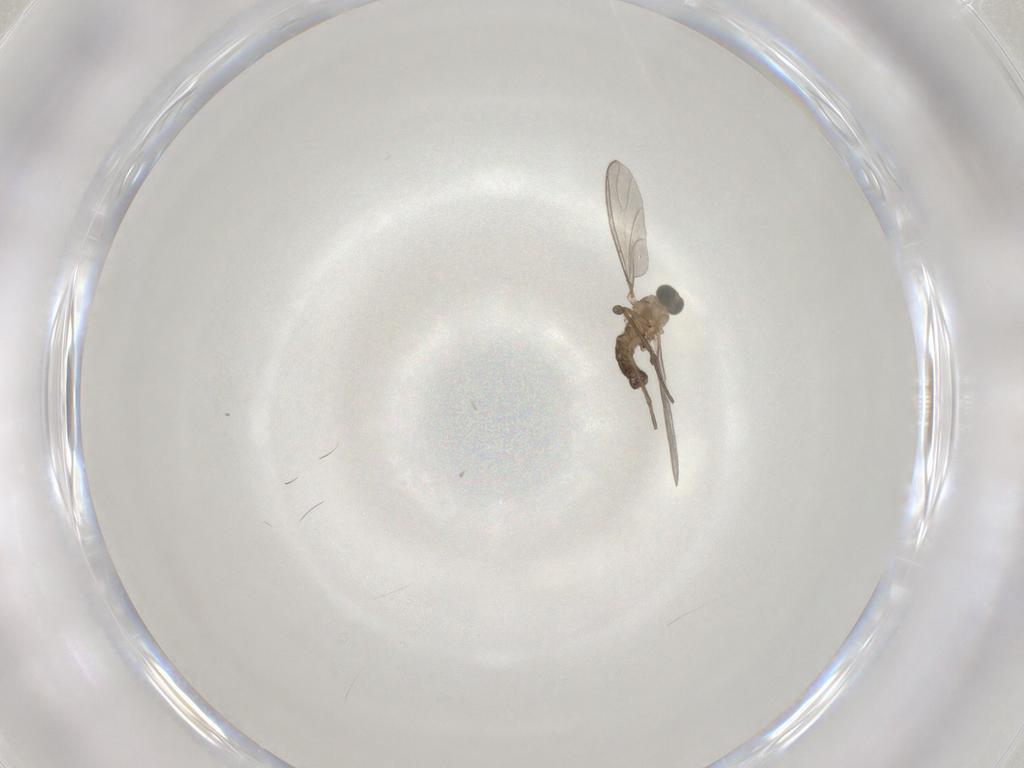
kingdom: Animalia
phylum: Arthropoda
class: Insecta
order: Diptera
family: Sciaridae
